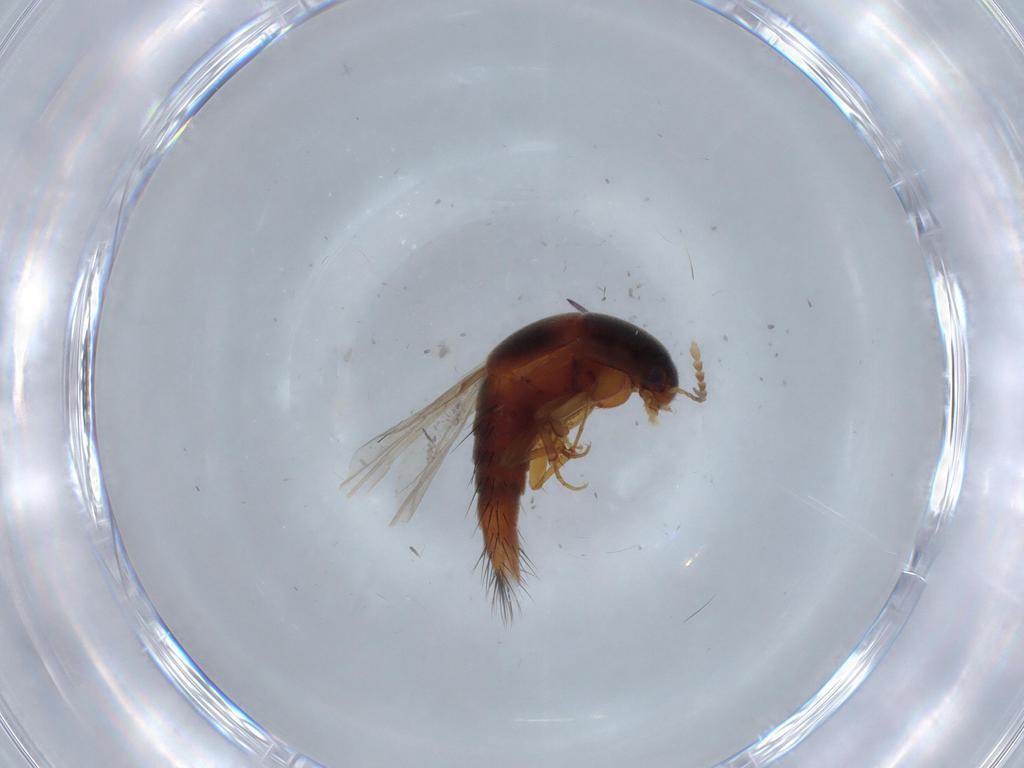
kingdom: Animalia
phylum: Arthropoda
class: Insecta
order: Coleoptera
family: Staphylinidae
